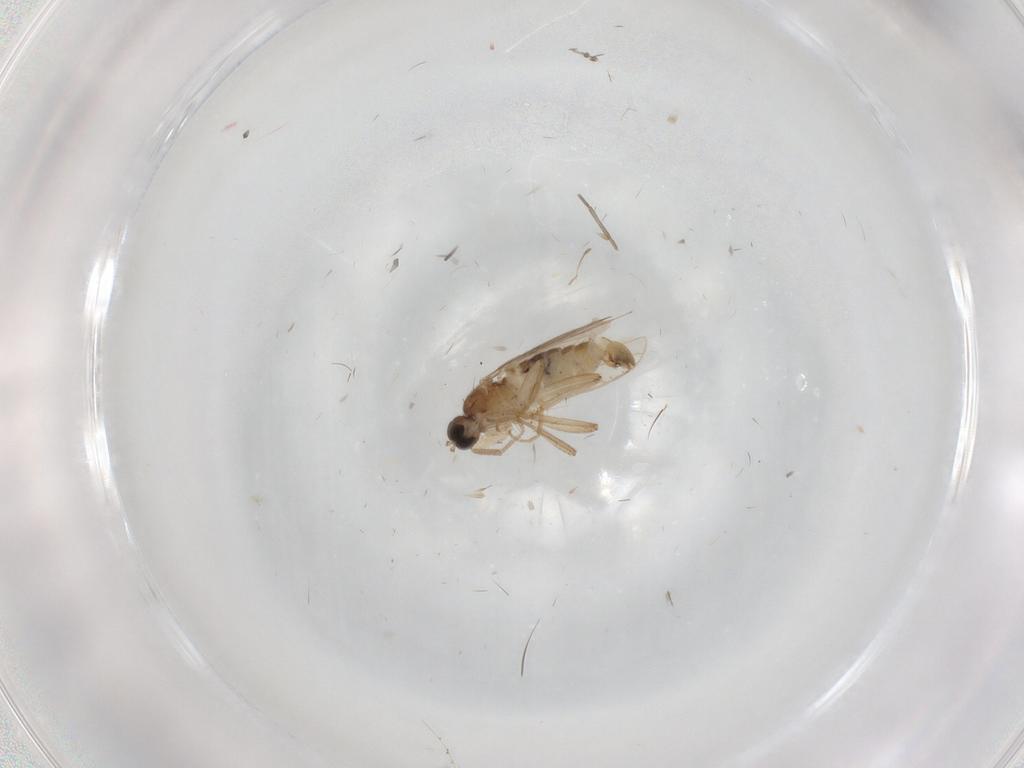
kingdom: Animalia
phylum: Arthropoda
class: Insecta
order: Diptera
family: Hybotidae
